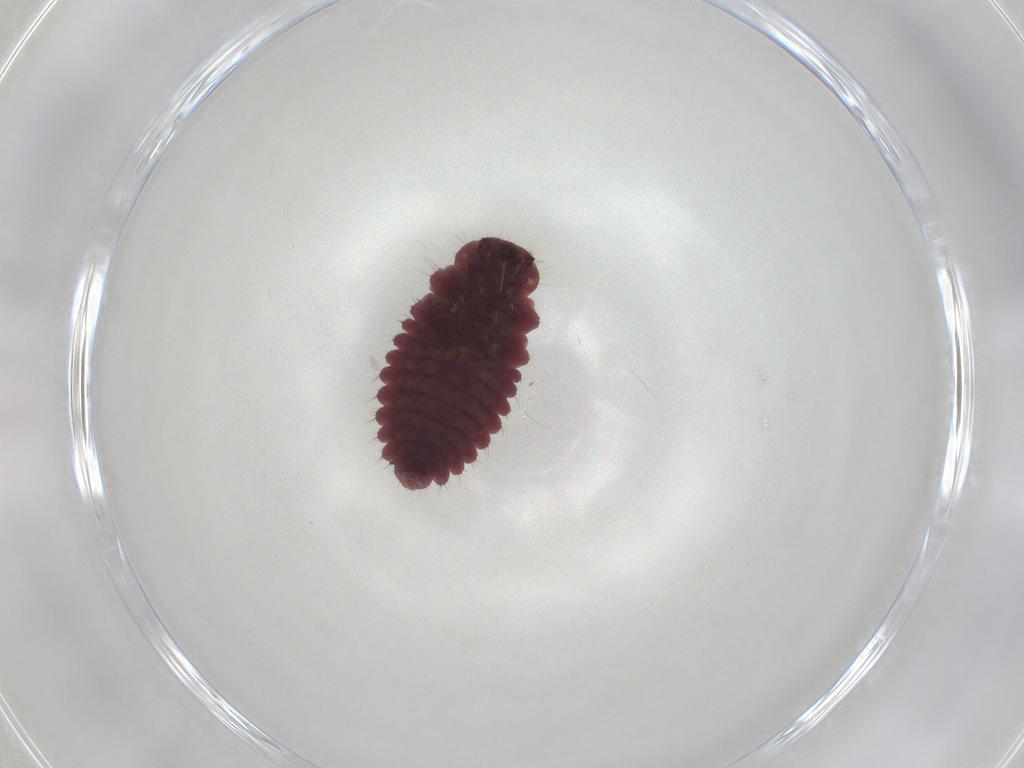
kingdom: Animalia
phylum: Arthropoda
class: Insecta
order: Coleoptera
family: Coccinellidae
